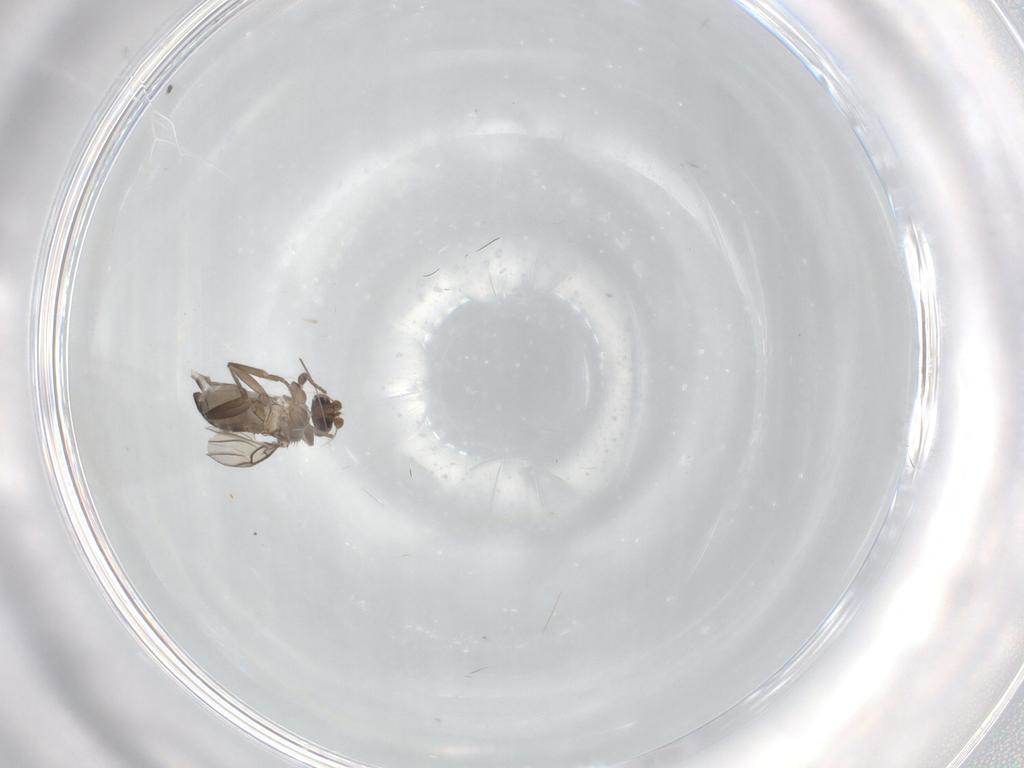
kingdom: Animalia
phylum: Arthropoda
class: Insecta
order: Diptera
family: Phoridae
